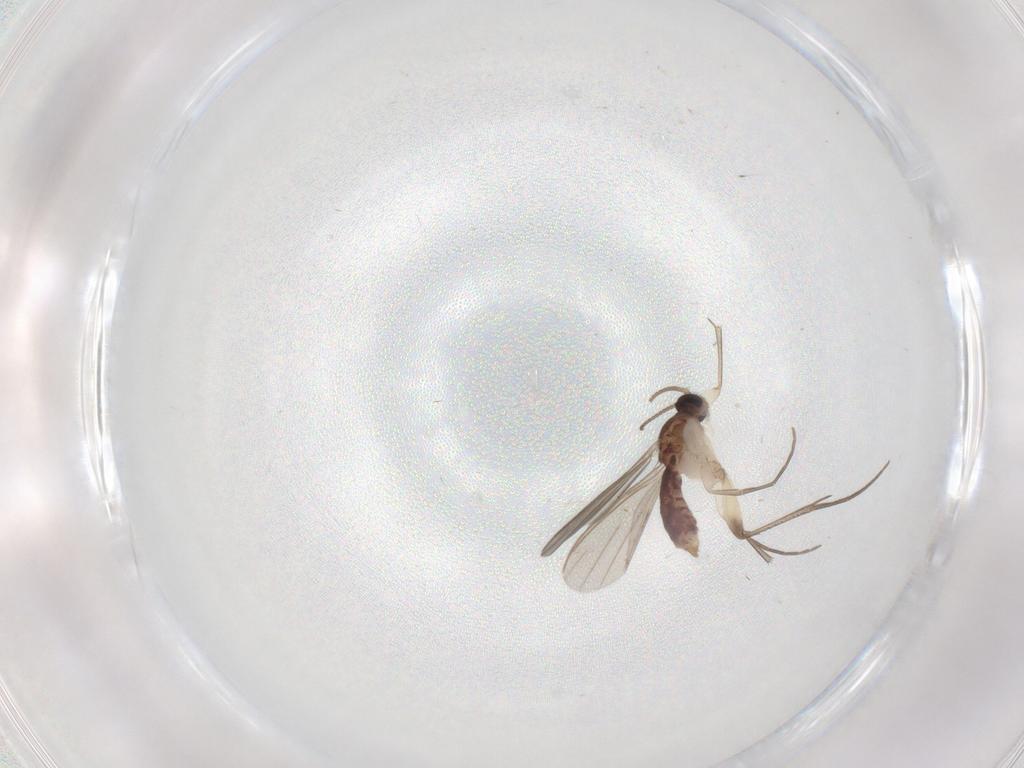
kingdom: Animalia
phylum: Arthropoda
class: Insecta
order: Diptera
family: Mycetophilidae
